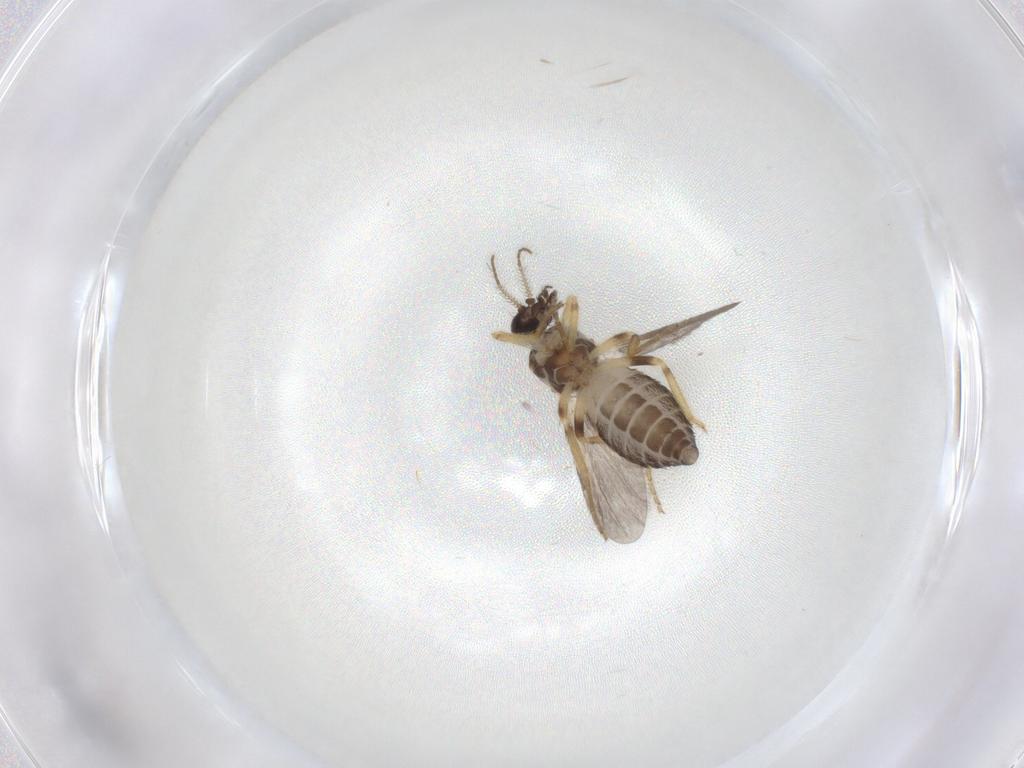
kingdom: Animalia
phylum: Arthropoda
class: Insecta
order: Diptera
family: Ceratopogonidae
